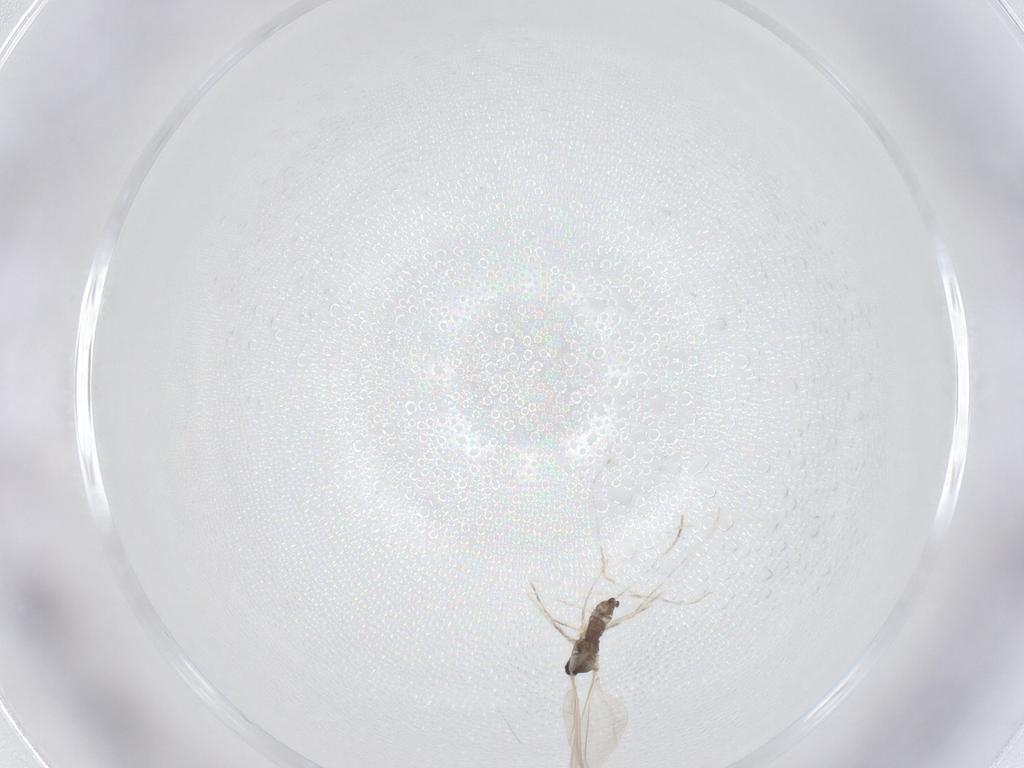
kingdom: Animalia
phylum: Arthropoda
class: Insecta
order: Diptera
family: Cecidomyiidae
